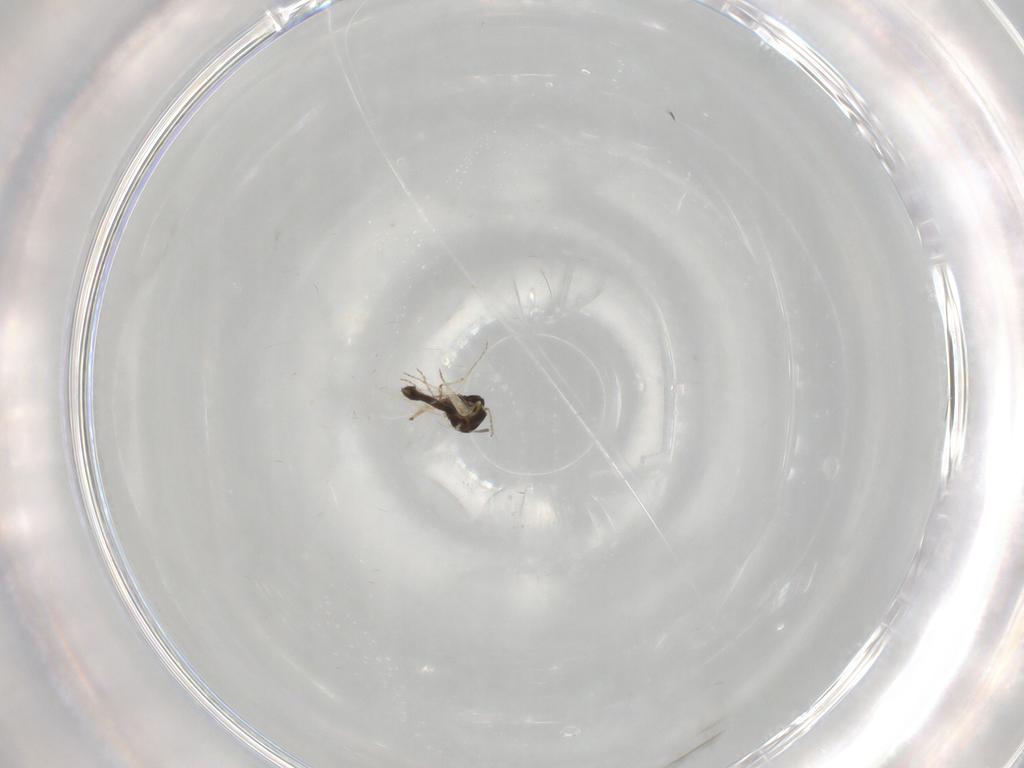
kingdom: Animalia
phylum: Arthropoda
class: Insecta
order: Diptera
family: Ceratopogonidae
